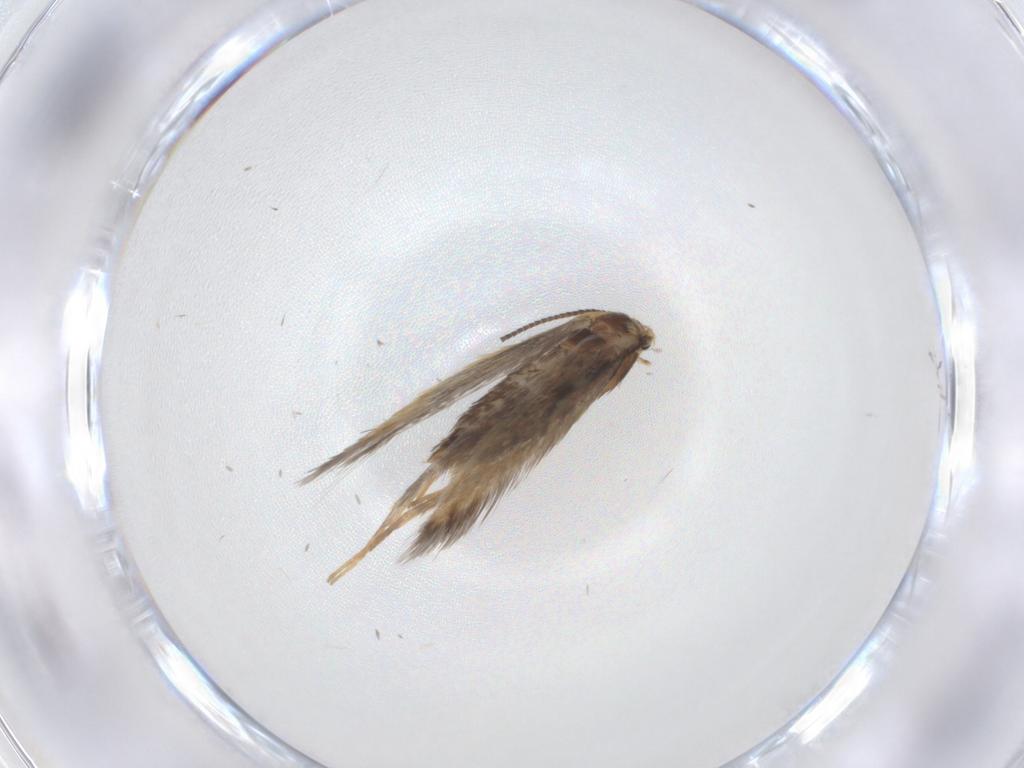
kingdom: Animalia
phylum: Arthropoda
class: Insecta
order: Lepidoptera
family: Nepticulidae
